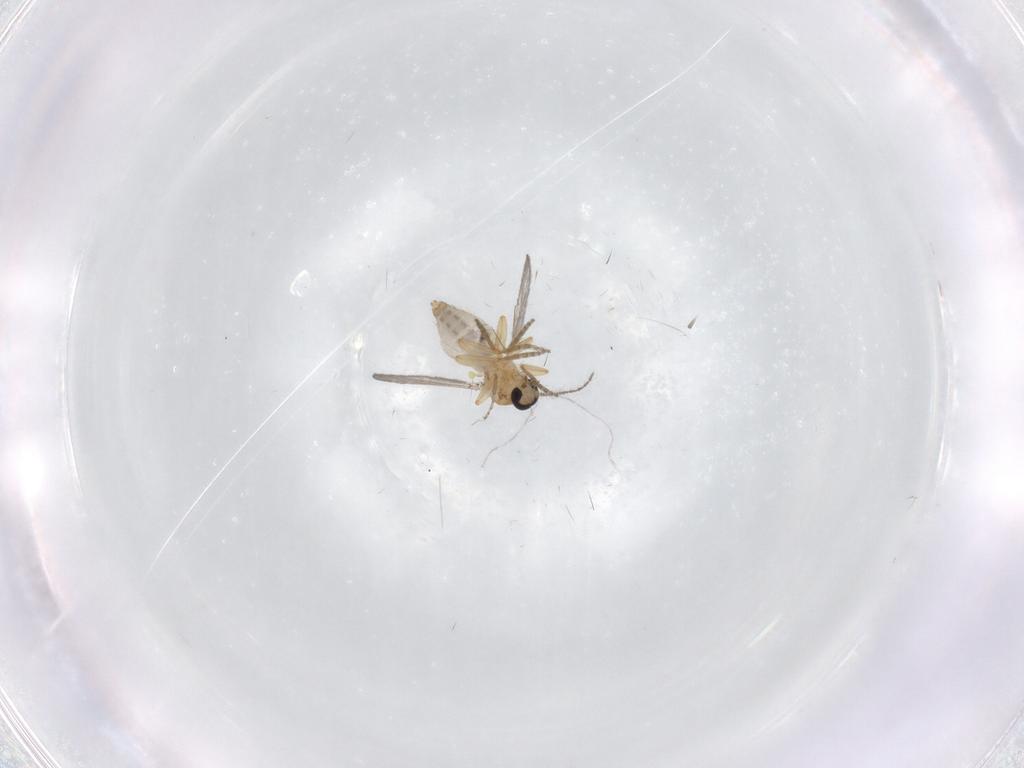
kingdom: Animalia
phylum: Arthropoda
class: Insecta
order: Diptera
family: Ceratopogonidae
